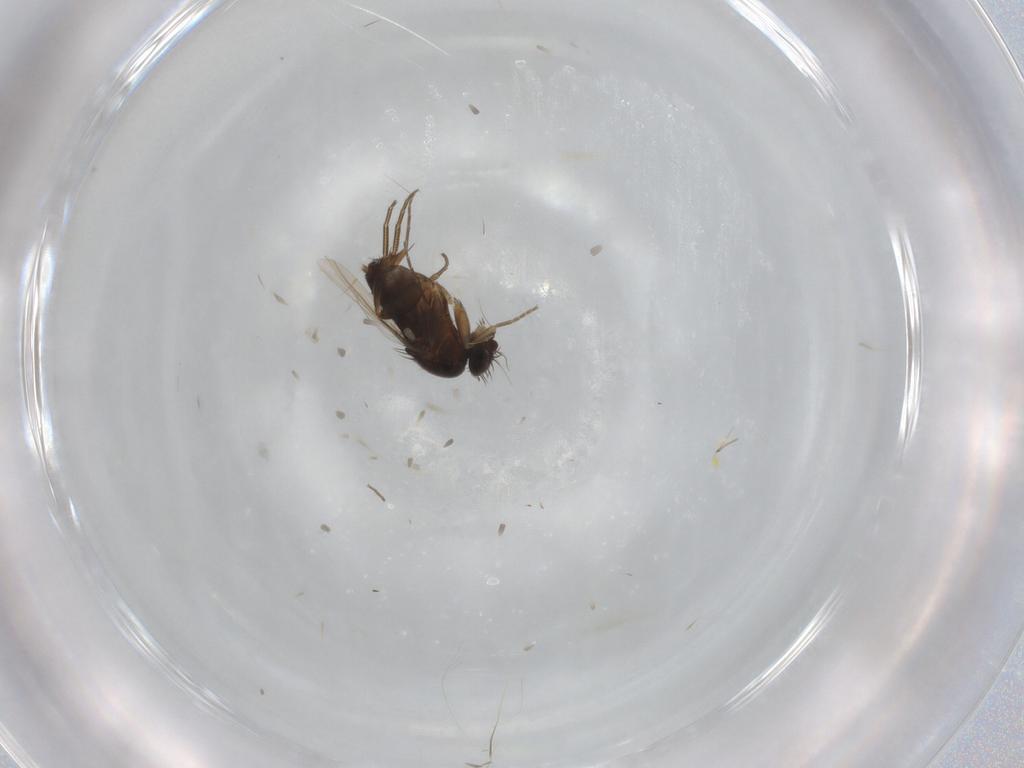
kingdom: Animalia
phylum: Arthropoda
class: Insecta
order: Diptera
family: Phoridae
